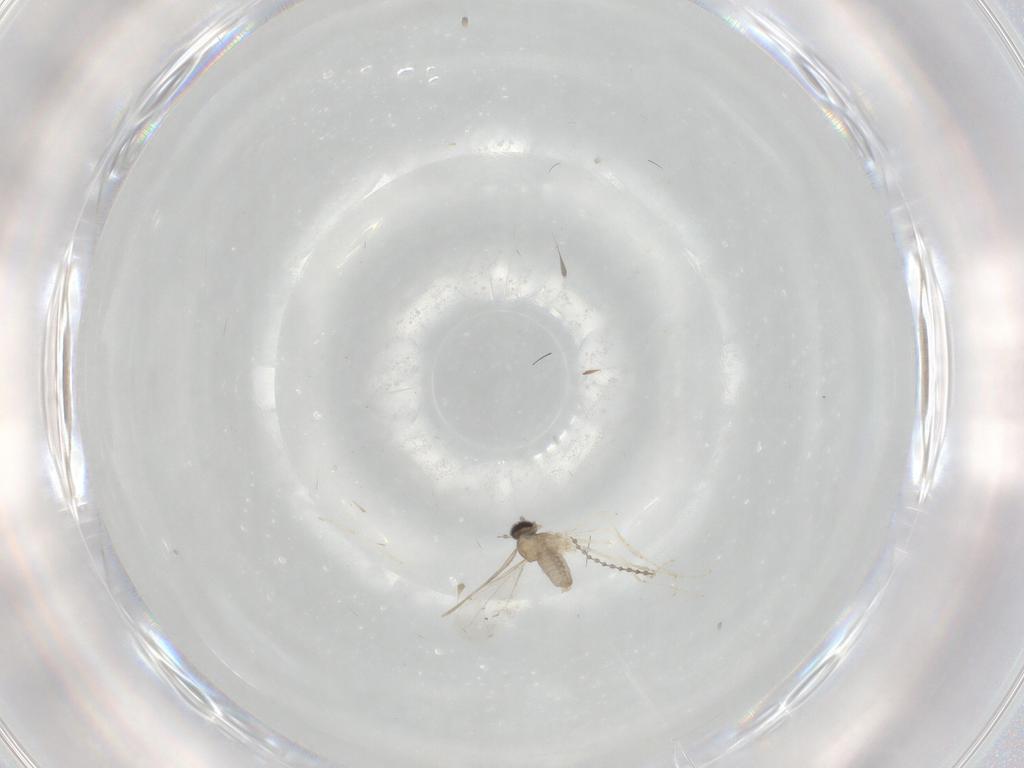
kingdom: Animalia
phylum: Arthropoda
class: Insecta
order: Diptera
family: Cecidomyiidae
